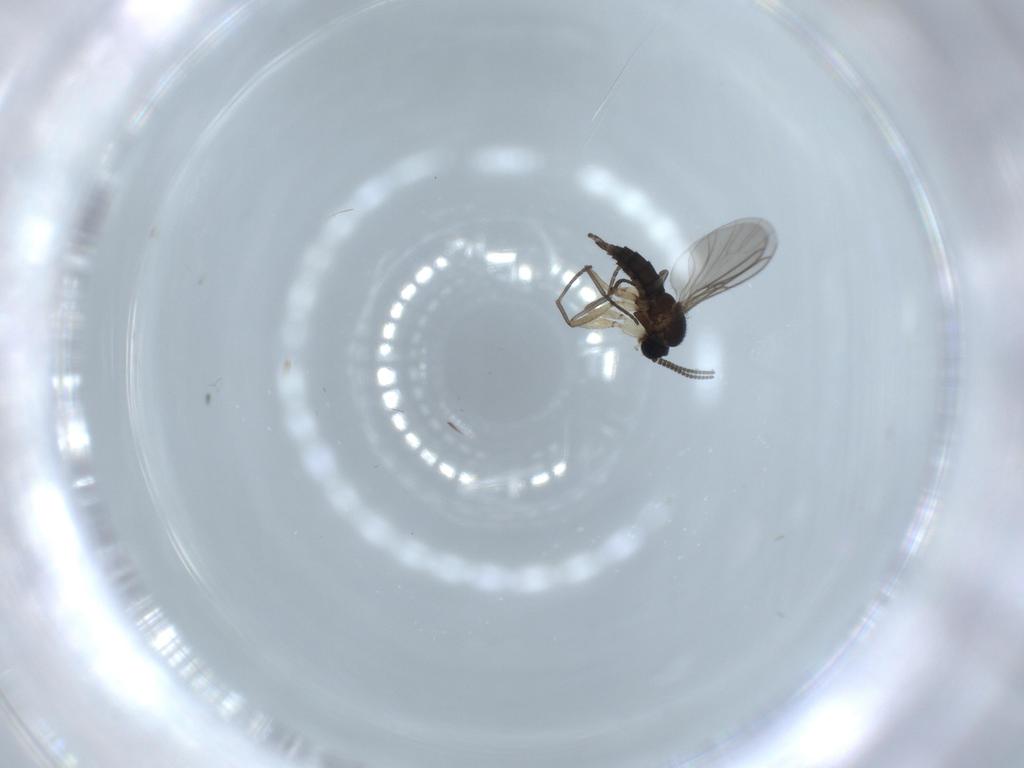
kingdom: Animalia
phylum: Arthropoda
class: Insecta
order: Diptera
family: Sciaridae
